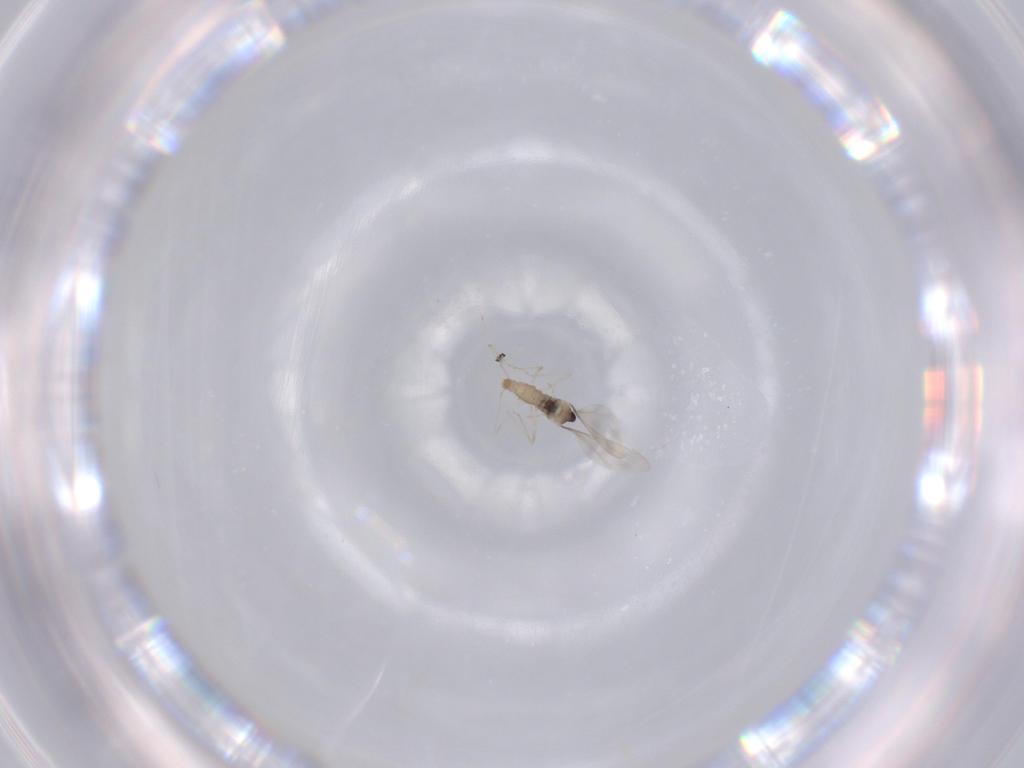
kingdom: Animalia
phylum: Arthropoda
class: Insecta
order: Diptera
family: Cecidomyiidae
